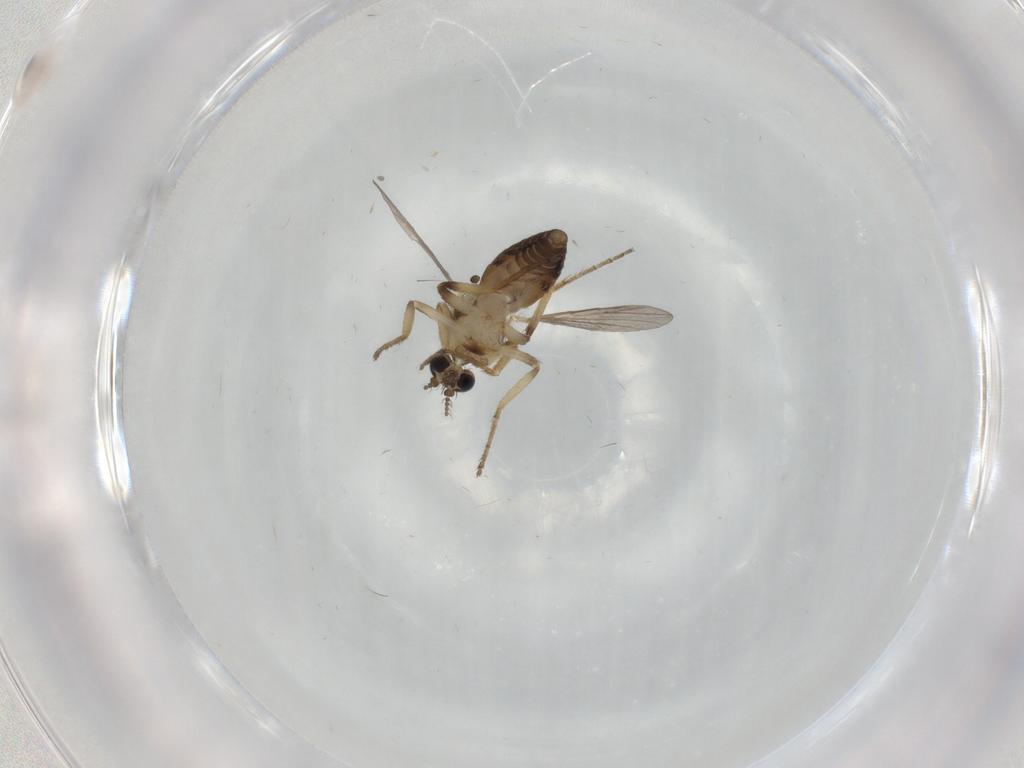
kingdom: Animalia
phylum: Arthropoda
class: Insecta
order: Diptera
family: Ceratopogonidae
